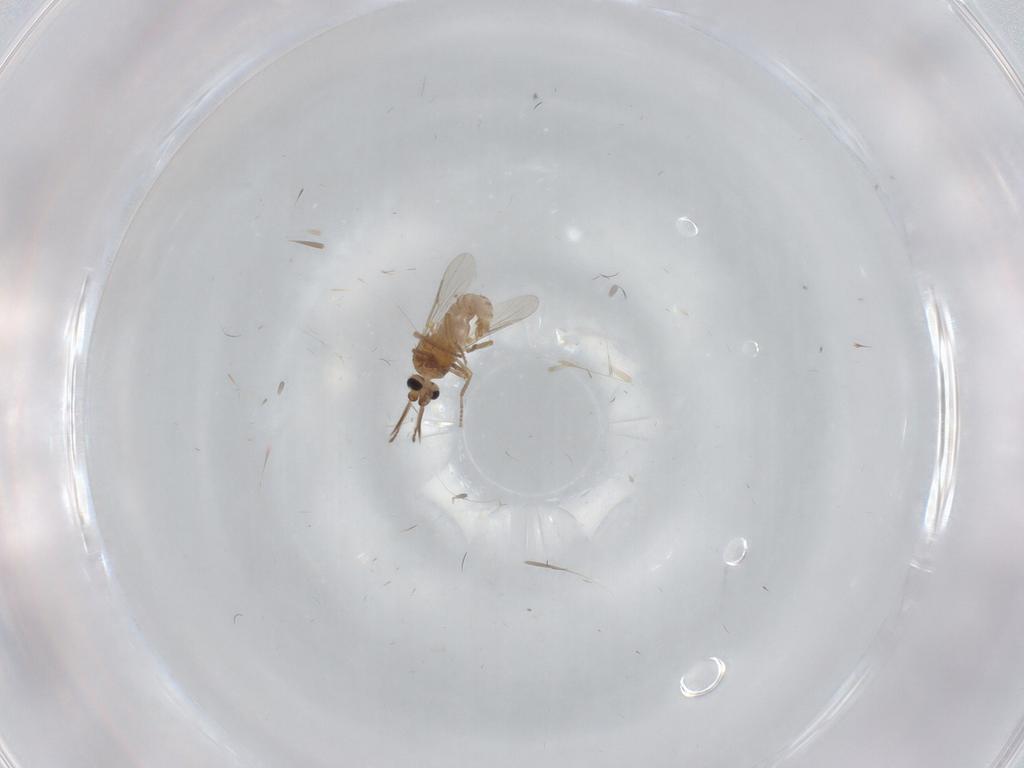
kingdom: Animalia
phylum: Arthropoda
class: Insecta
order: Diptera
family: Ceratopogonidae
